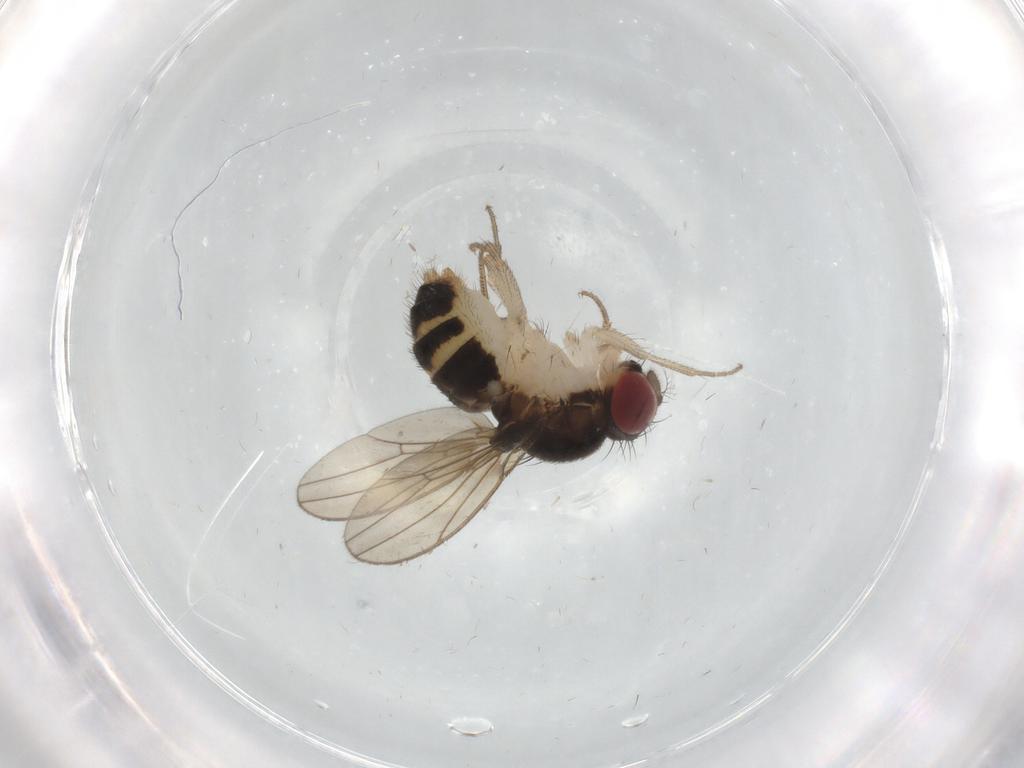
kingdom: Animalia
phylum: Arthropoda
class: Insecta
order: Diptera
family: Drosophilidae
